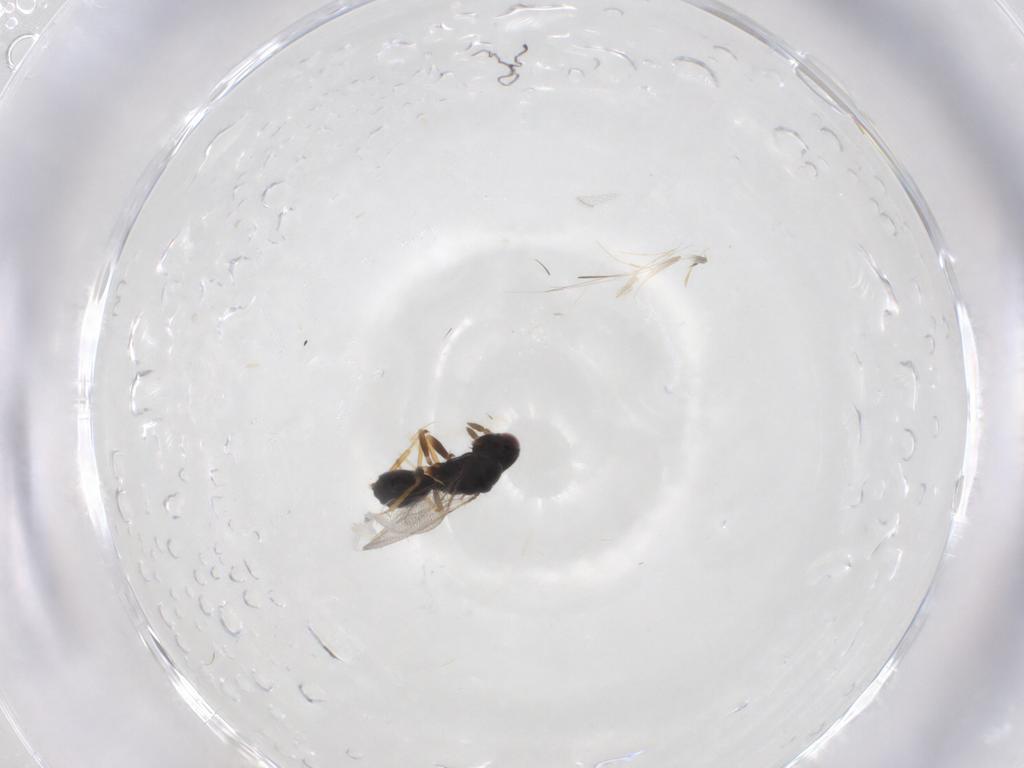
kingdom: Animalia
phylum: Arthropoda
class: Insecta
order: Hymenoptera
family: Eulophidae
